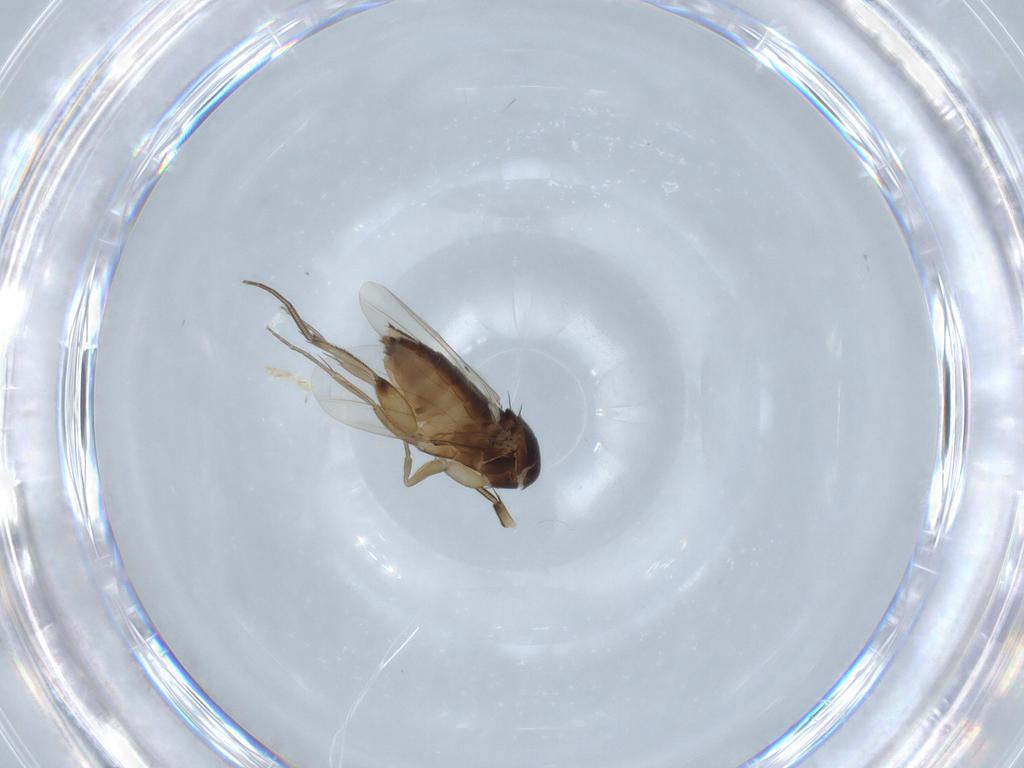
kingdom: Animalia
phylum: Arthropoda
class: Insecta
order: Diptera
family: Phoridae
